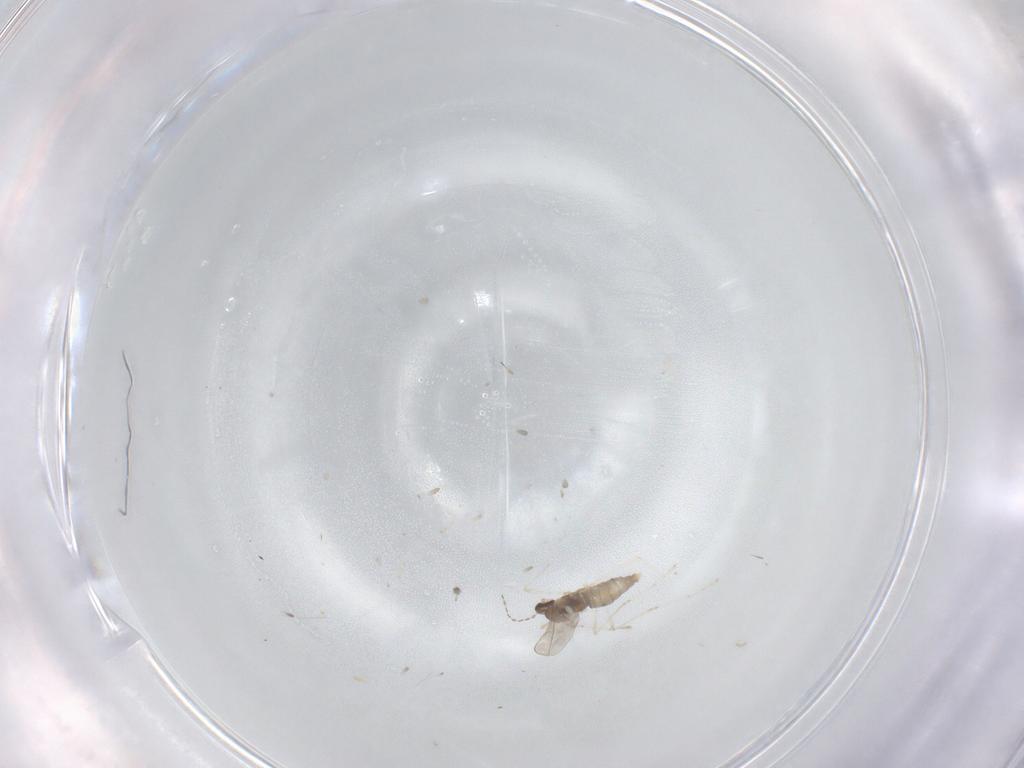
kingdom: Animalia
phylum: Arthropoda
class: Insecta
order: Diptera
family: Cecidomyiidae
